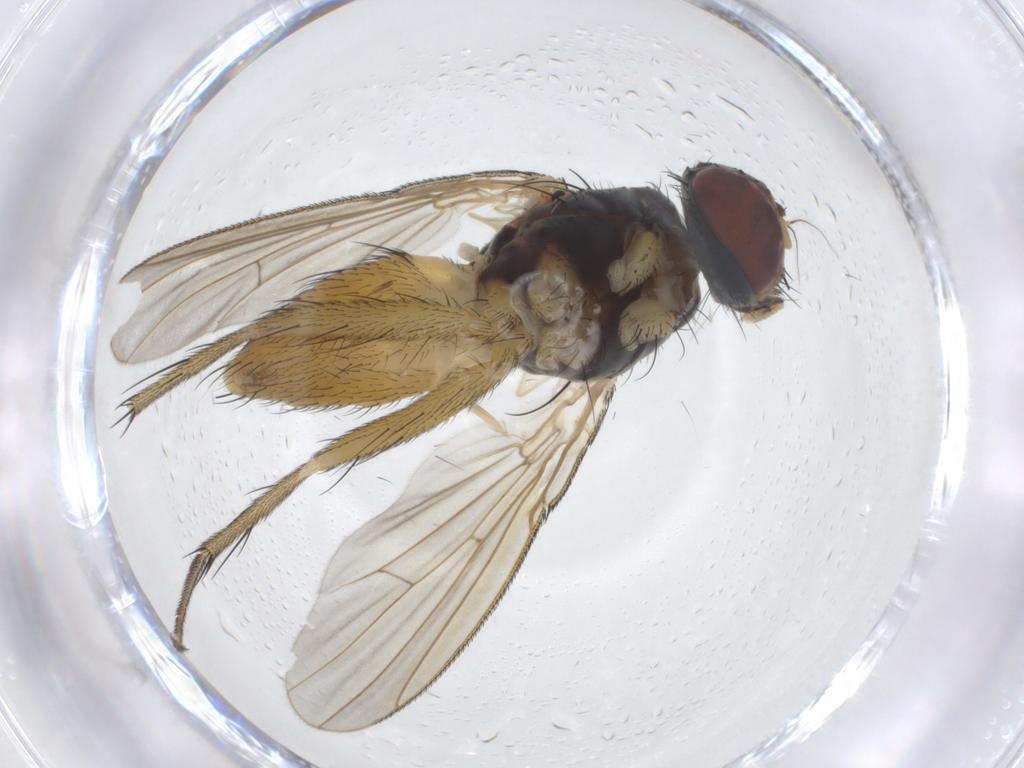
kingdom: Animalia
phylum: Arthropoda
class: Insecta
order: Diptera
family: Muscidae
